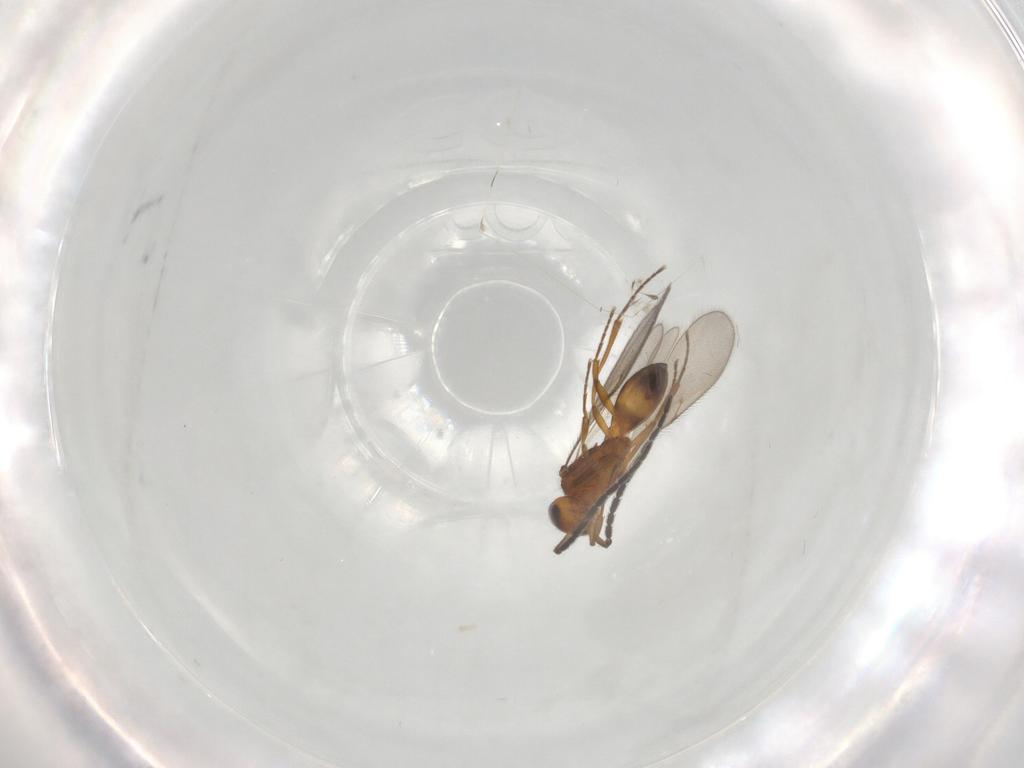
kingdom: Animalia
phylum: Arthropoda
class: Insecta
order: Hymenoptera
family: Scelionidae
